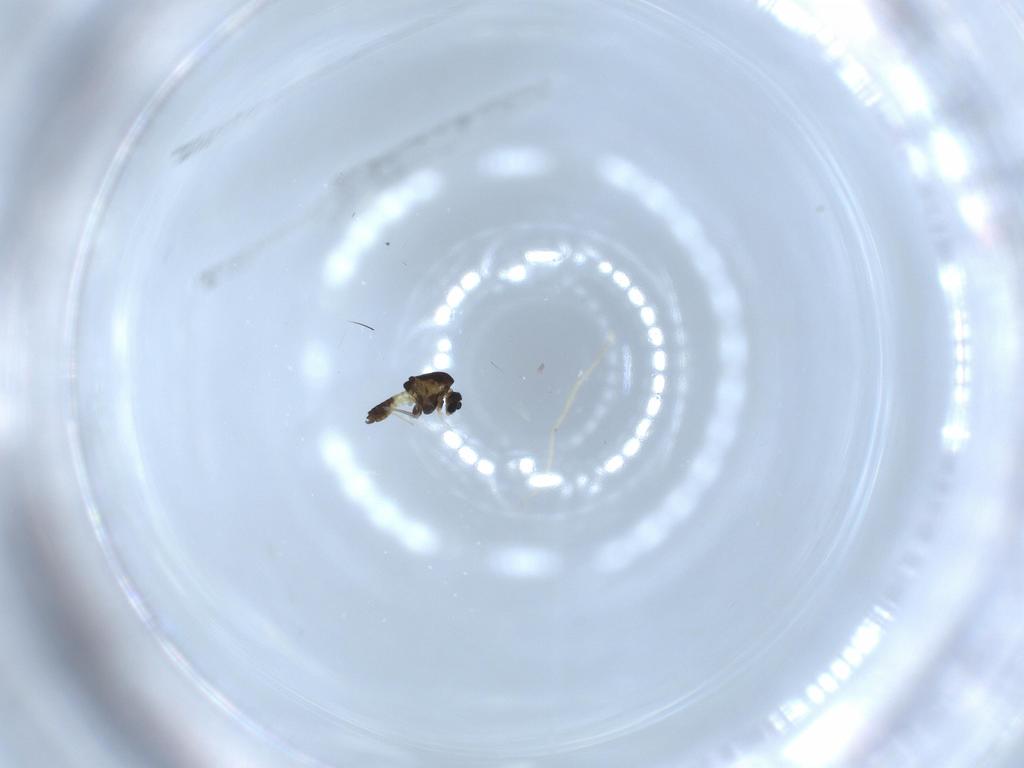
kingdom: Animalia
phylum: Arthropoda
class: Insecta
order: Diptera
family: Chironomidae
